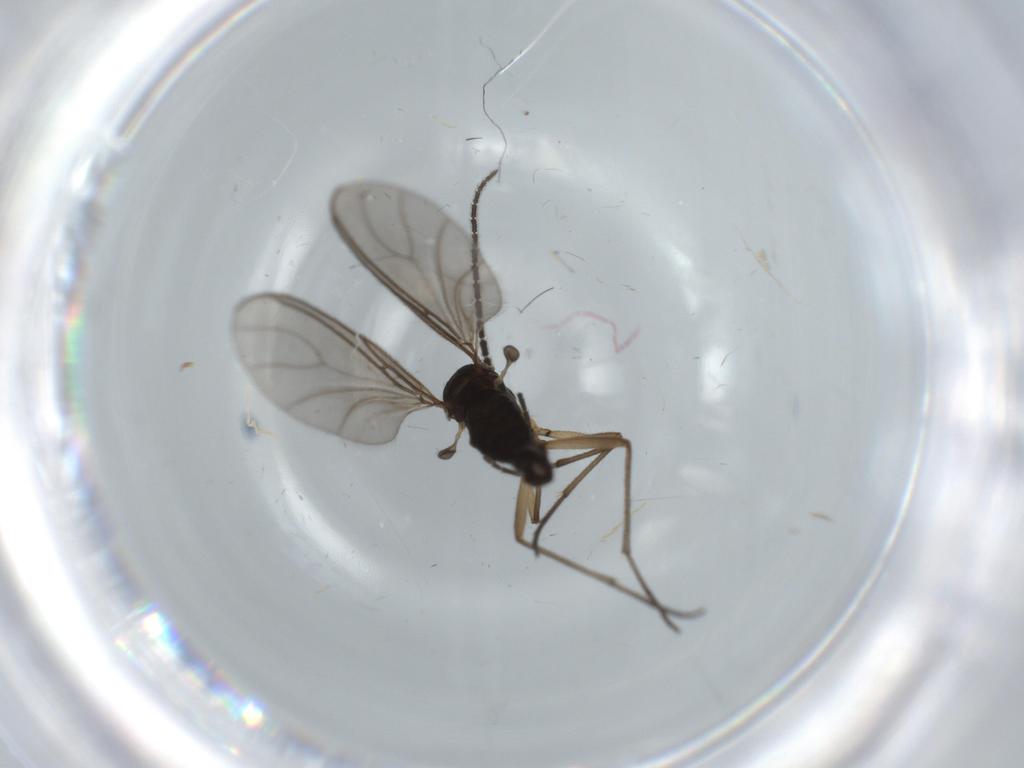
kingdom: Animalia
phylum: Arthropoda
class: Insecta
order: Diptera
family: Sciaridae
